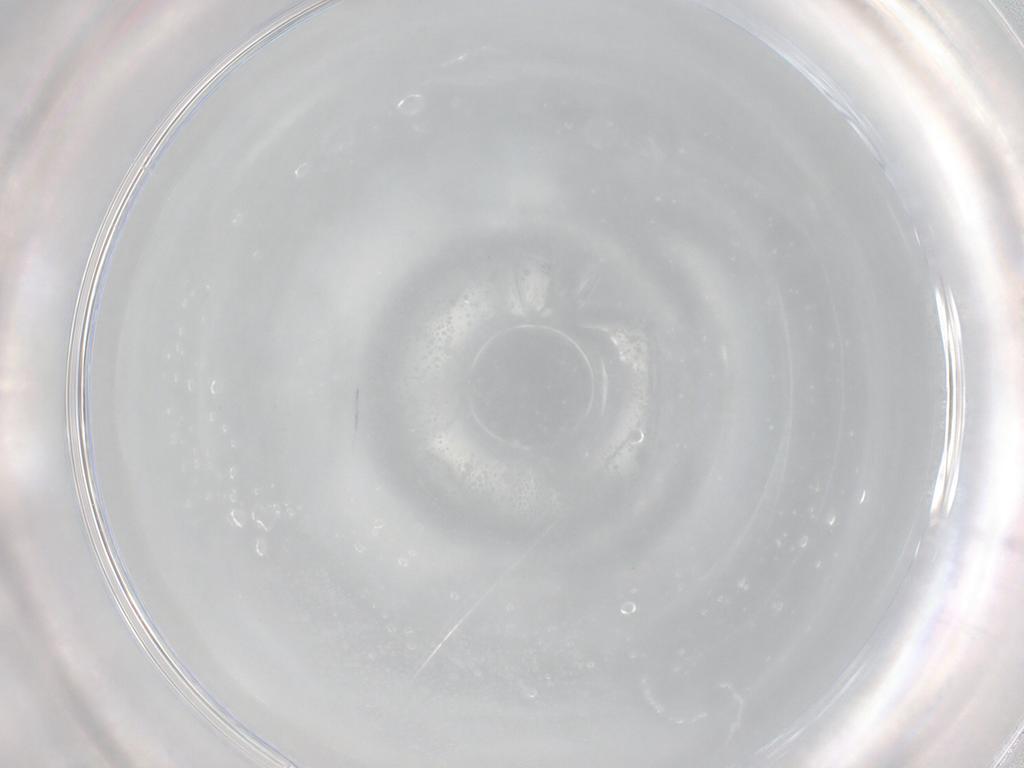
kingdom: Animalia
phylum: Arthropoda
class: Insecta
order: Hymenoptera
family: Mymaridae
